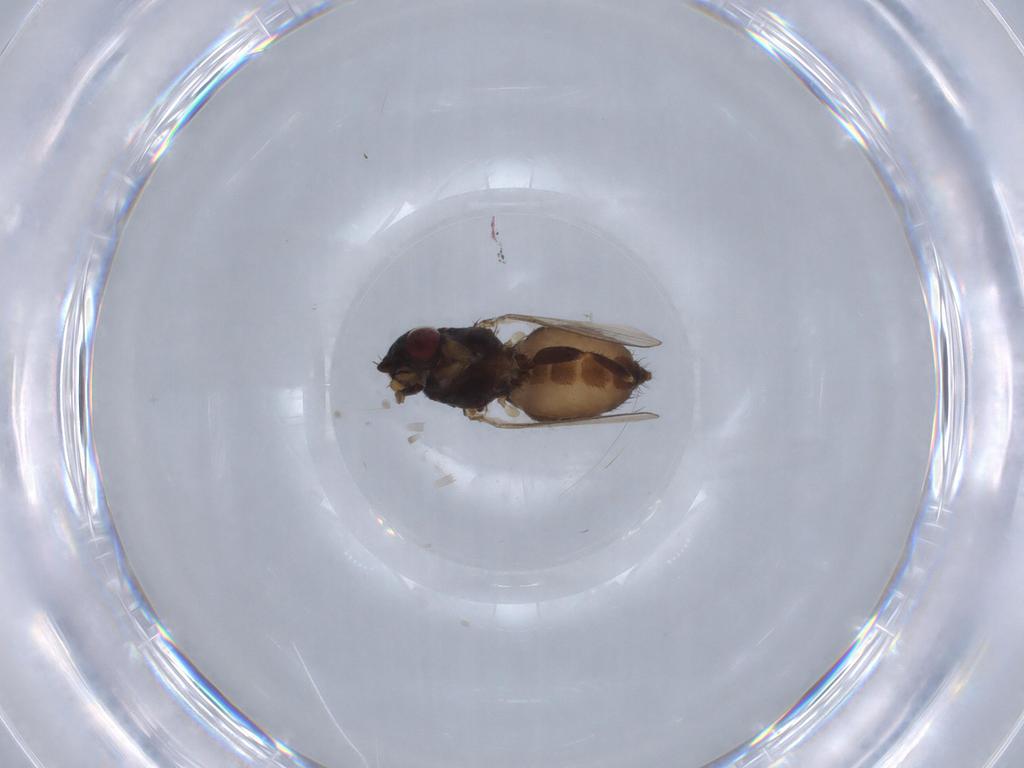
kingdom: Animalia
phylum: Arthropoda
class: Insecta
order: Diptera
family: Milichiidae
